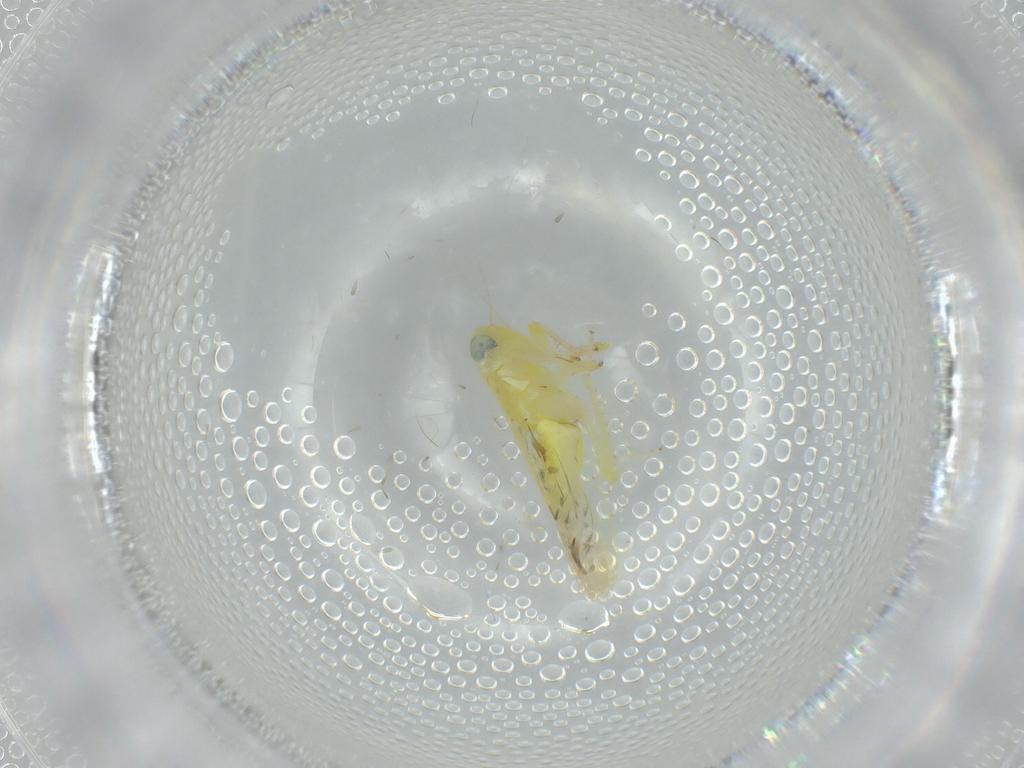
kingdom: Animalia
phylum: Arthropoda
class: Insecta
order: Hemiptera
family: Cicadellidae
